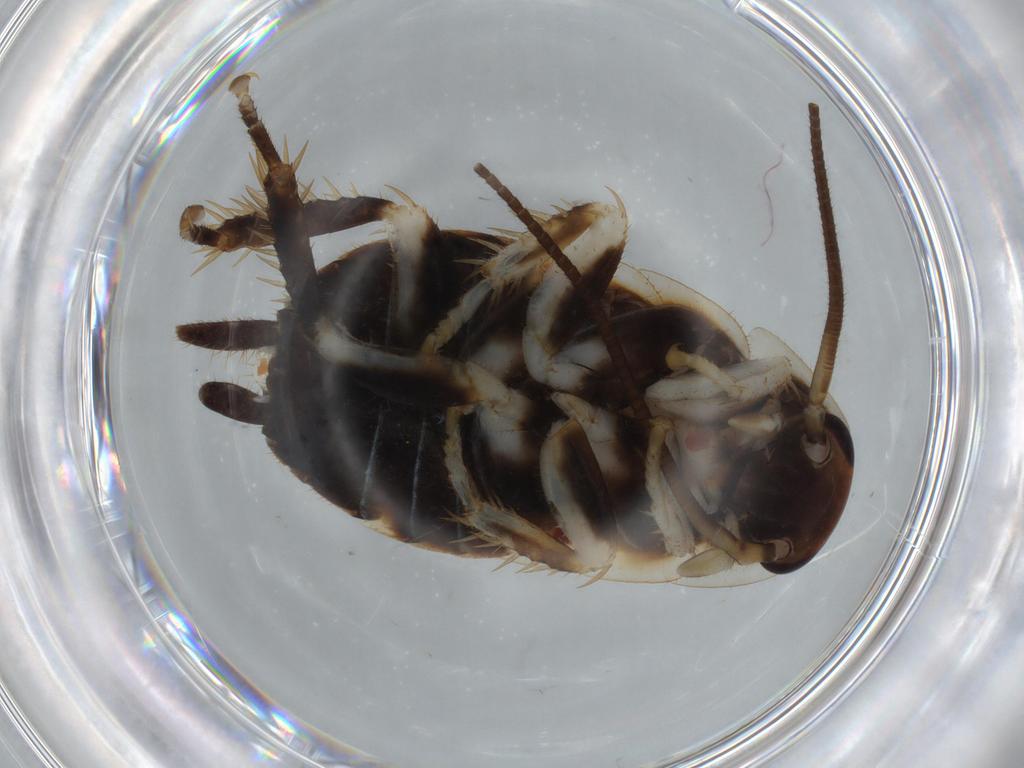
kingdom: Animalia
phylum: Arthropoda
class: Insecta
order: Blattodea
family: Ectobiidae
